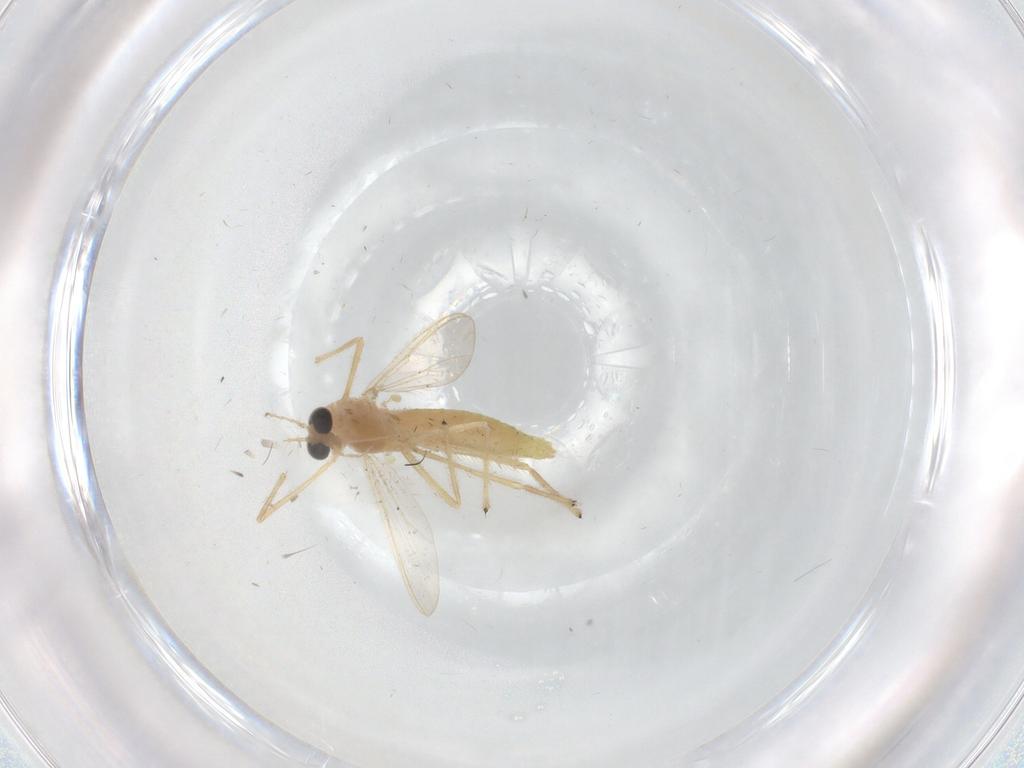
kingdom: Animalia
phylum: Arthropoda
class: Insecta
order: Diptera
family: Chironomidae
